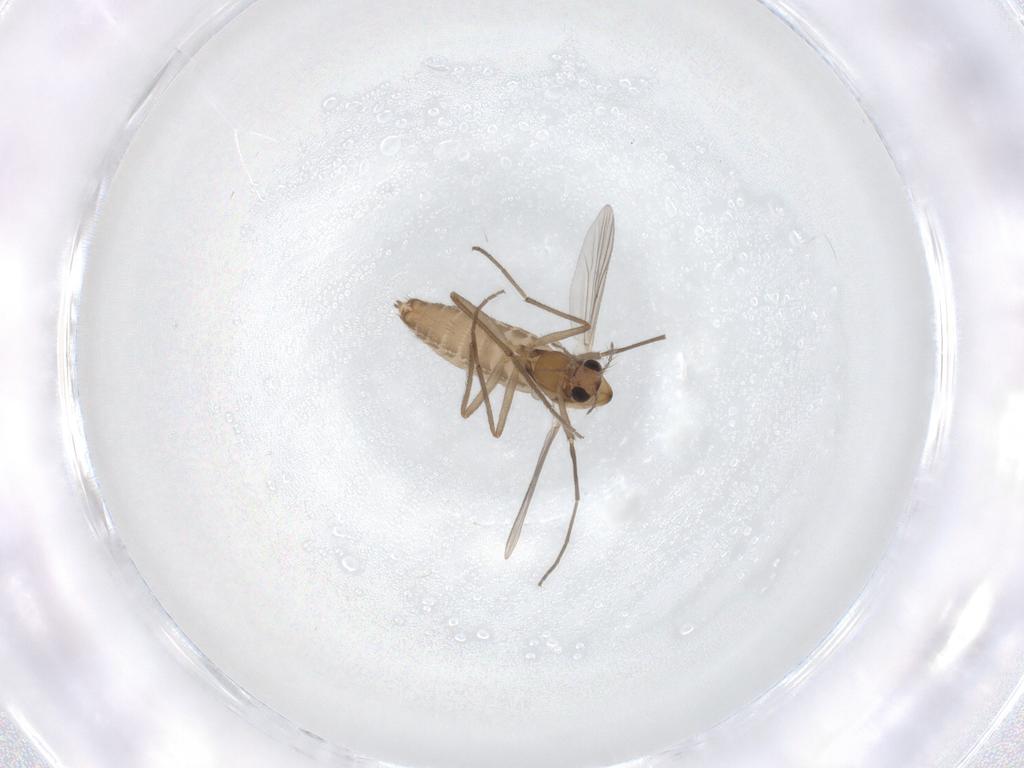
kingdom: Animalia
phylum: Arthropoda
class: Insecta
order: Diptera
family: Chironomidae
